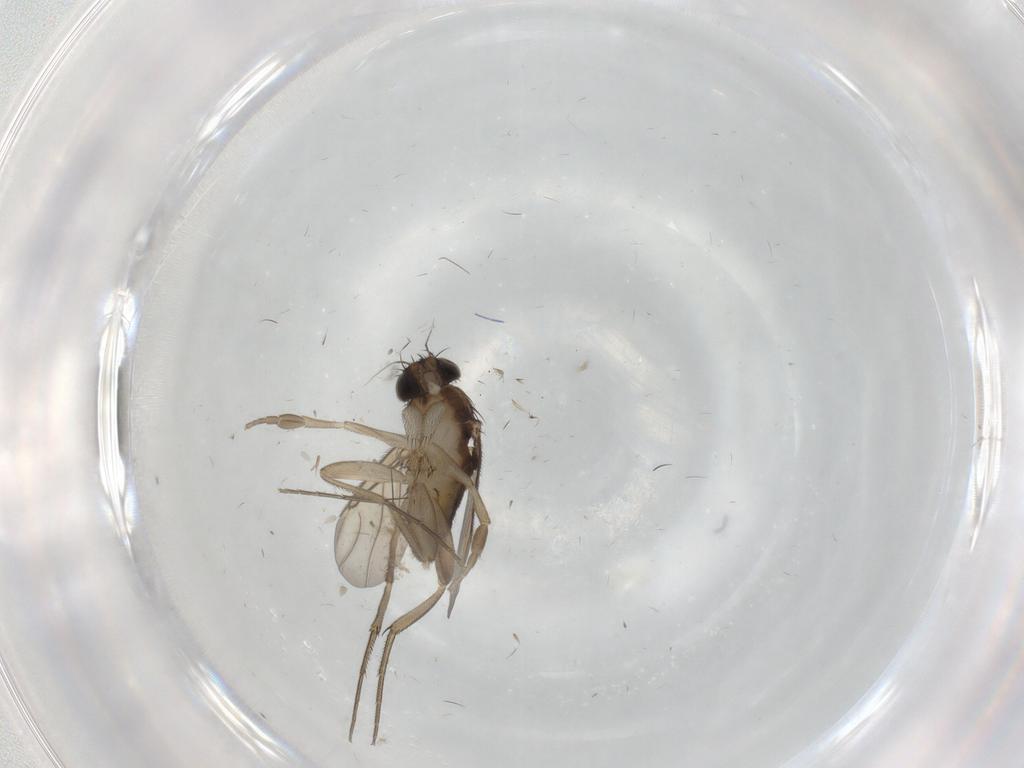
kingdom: Animalia
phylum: Arthropoda
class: Insecta
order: Diptera
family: Phoridae
